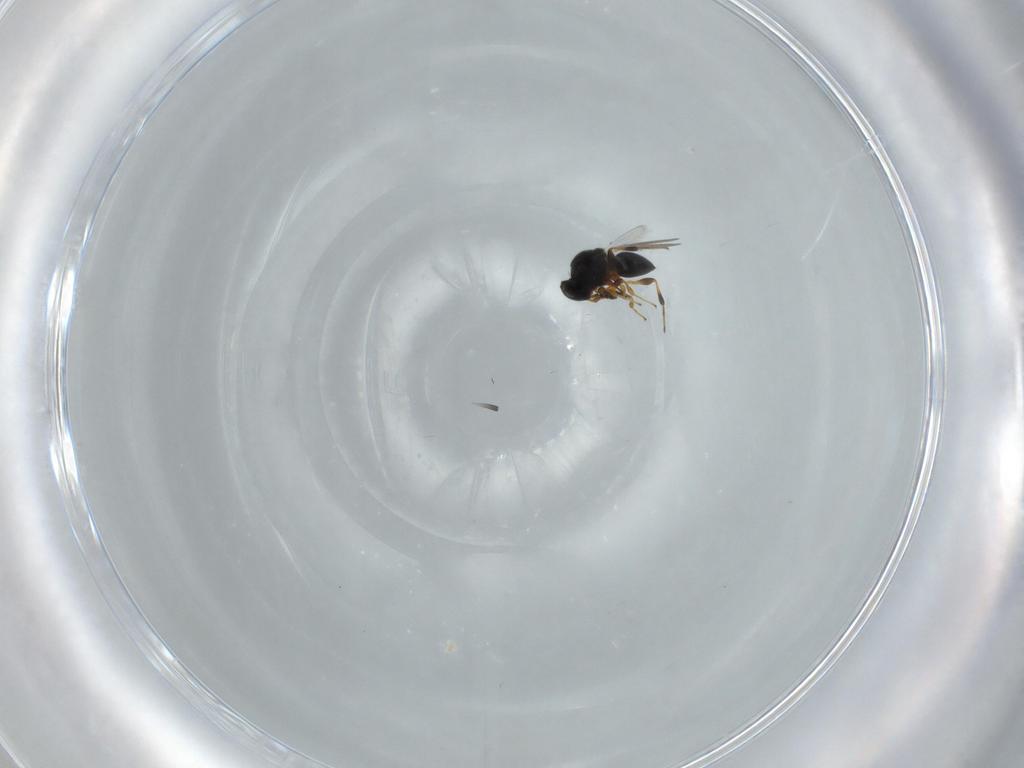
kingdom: Animalia
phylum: Arthropoda
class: Insecta
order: Hymenoptera
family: Platygastridae
